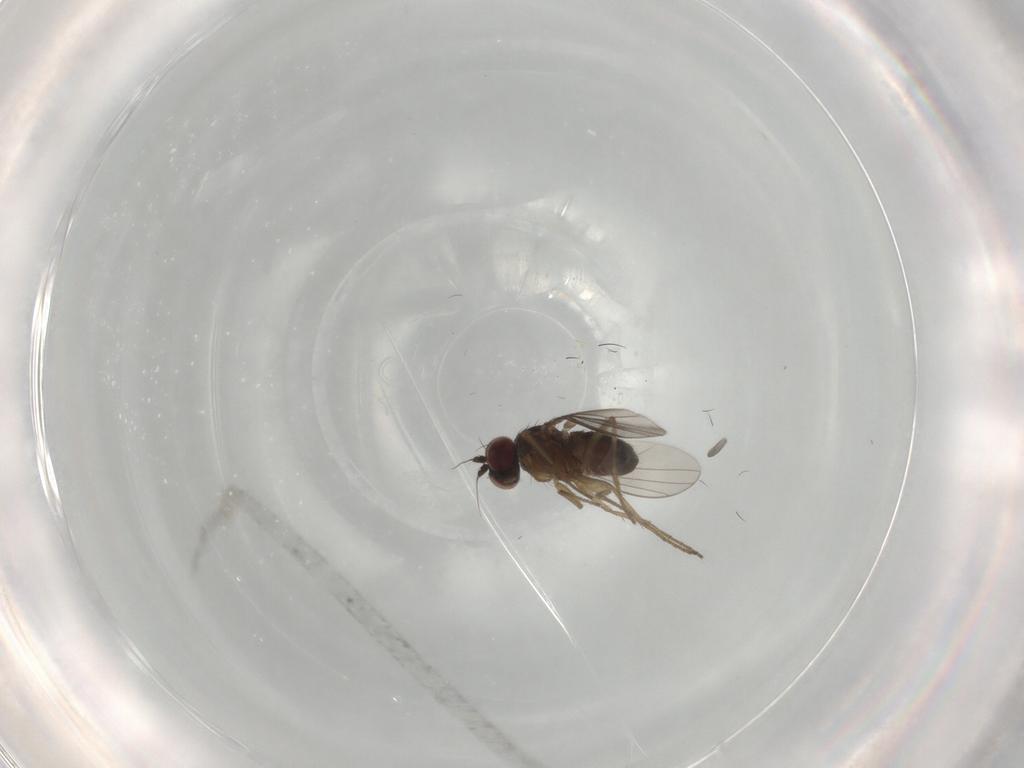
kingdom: Animalia
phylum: Arthropoda
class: Insecta
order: Diptera
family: Dolichopodidae
